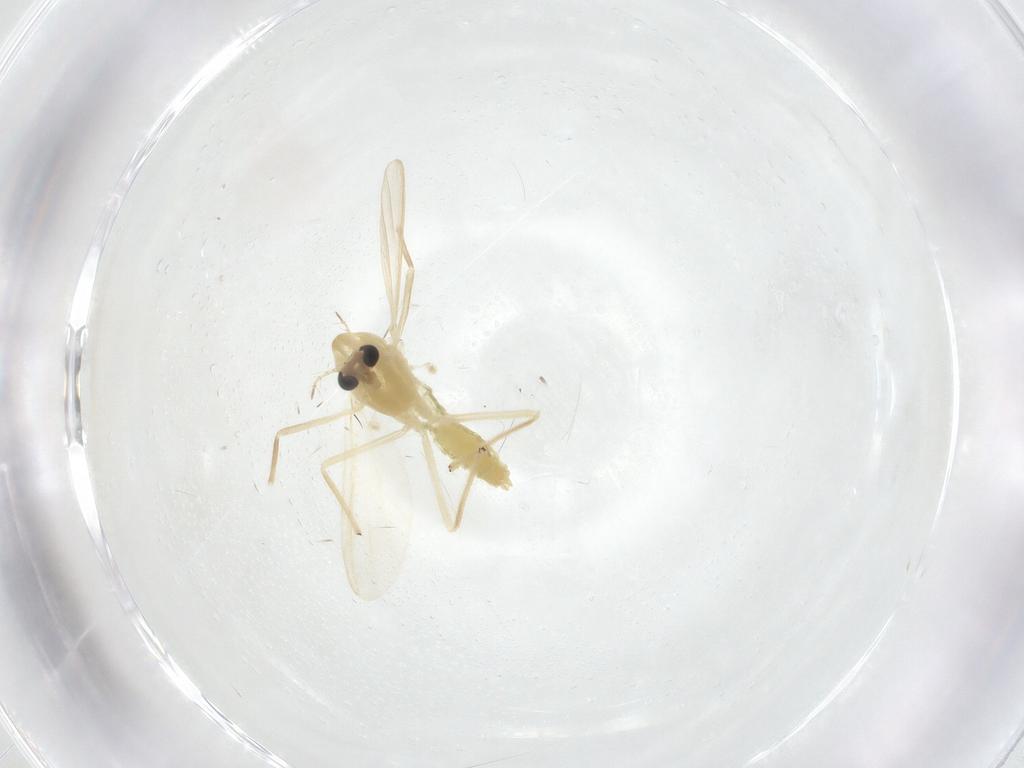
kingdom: Animalia
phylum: Arthropoda
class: Insecta
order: Diptera
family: Chironomidae
